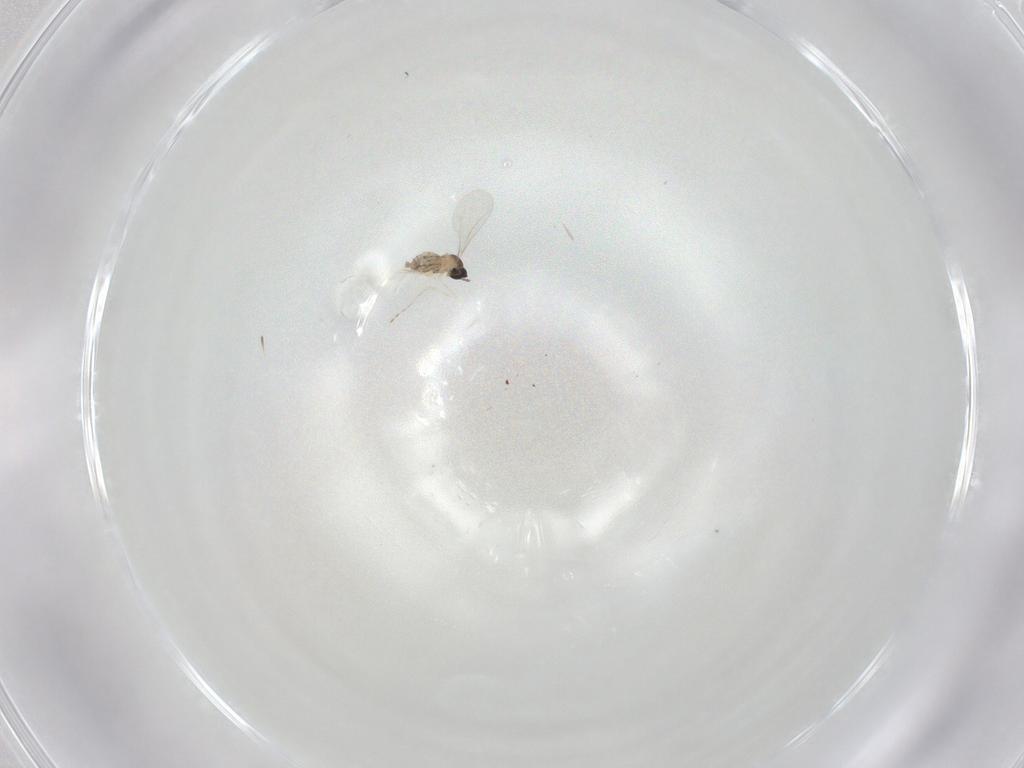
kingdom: Animalia
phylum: Arthropoda
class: Insecta
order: Diptera
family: Cecidomyiidae
